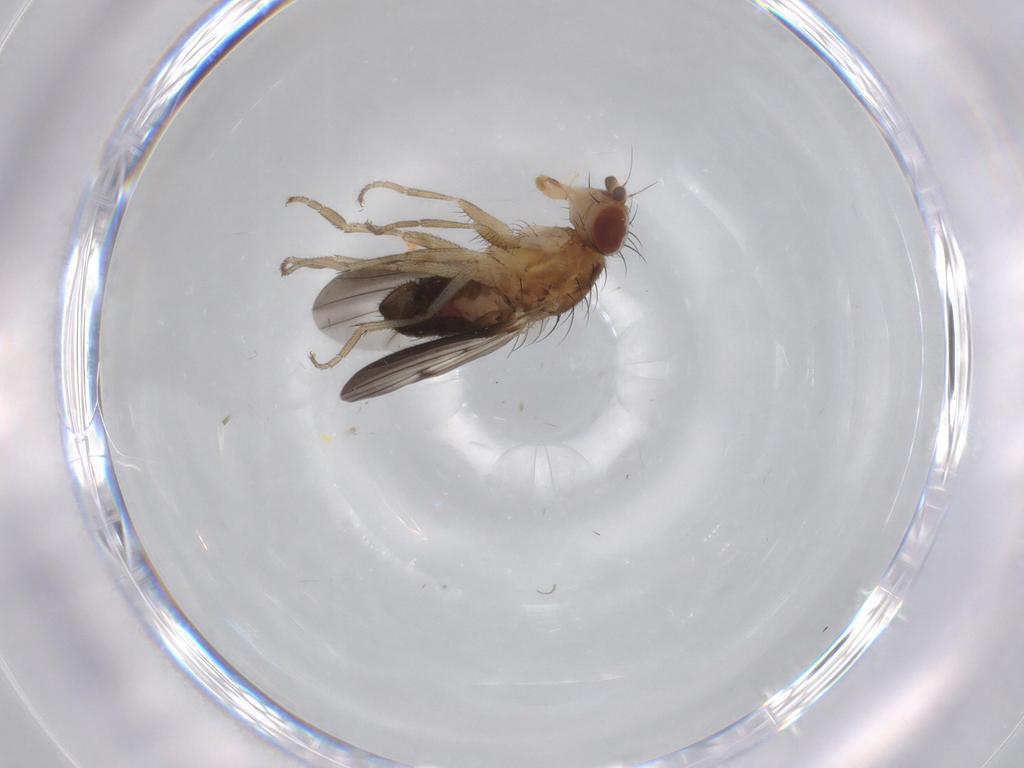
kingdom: Animalia
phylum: Arthropoda
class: Insecta
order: Diptera
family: Heleomyzidae
